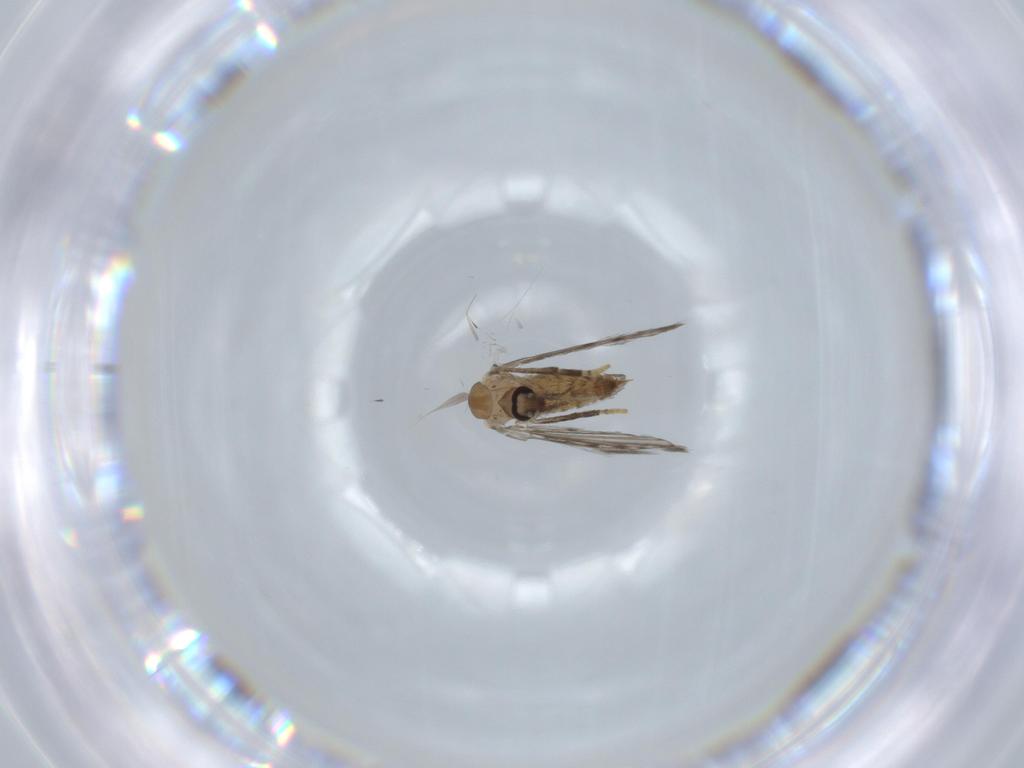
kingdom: Animalia
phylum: Arthropoda
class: Insecta
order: Diptera
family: Psychodidae
